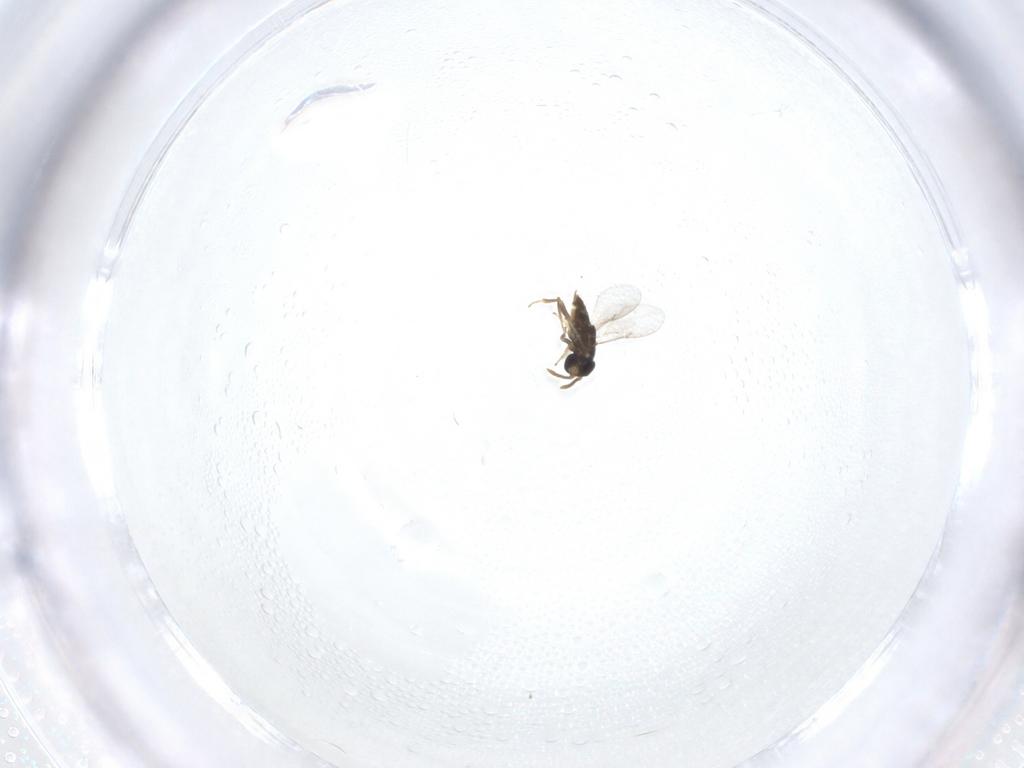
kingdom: Animalia
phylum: Arthropoda
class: Insecta
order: Hymenoptera
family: Encyrtidae
